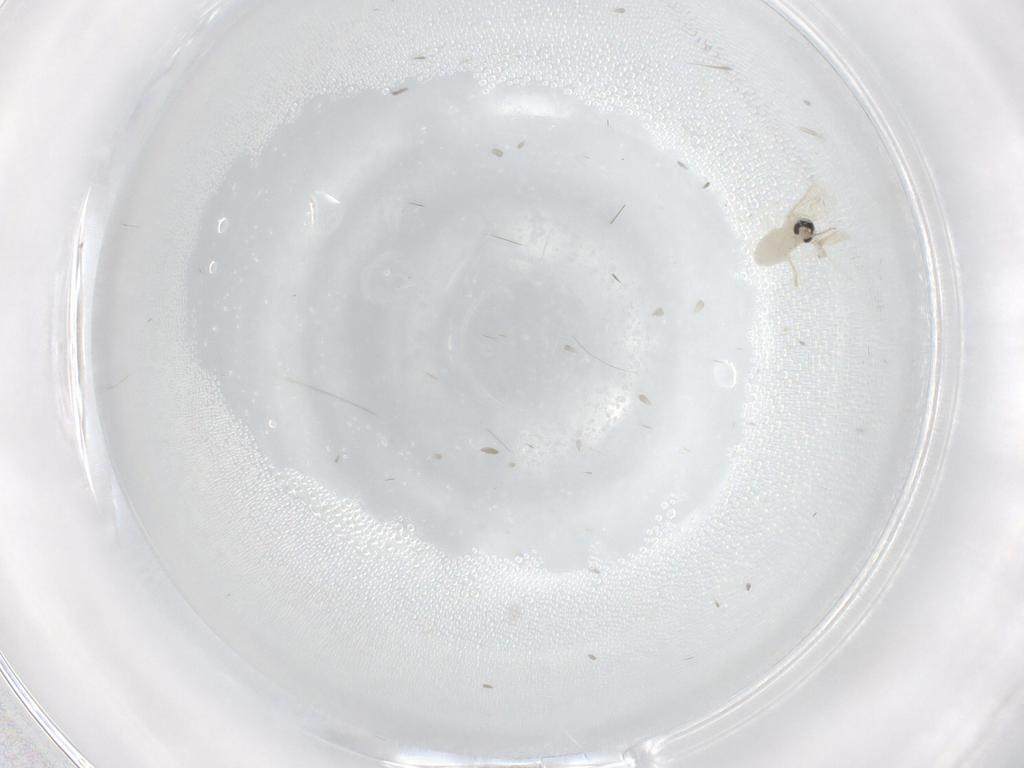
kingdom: Animalia
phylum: Arthropoda
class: Insecta
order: Diptera
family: Cecidomyiidae
